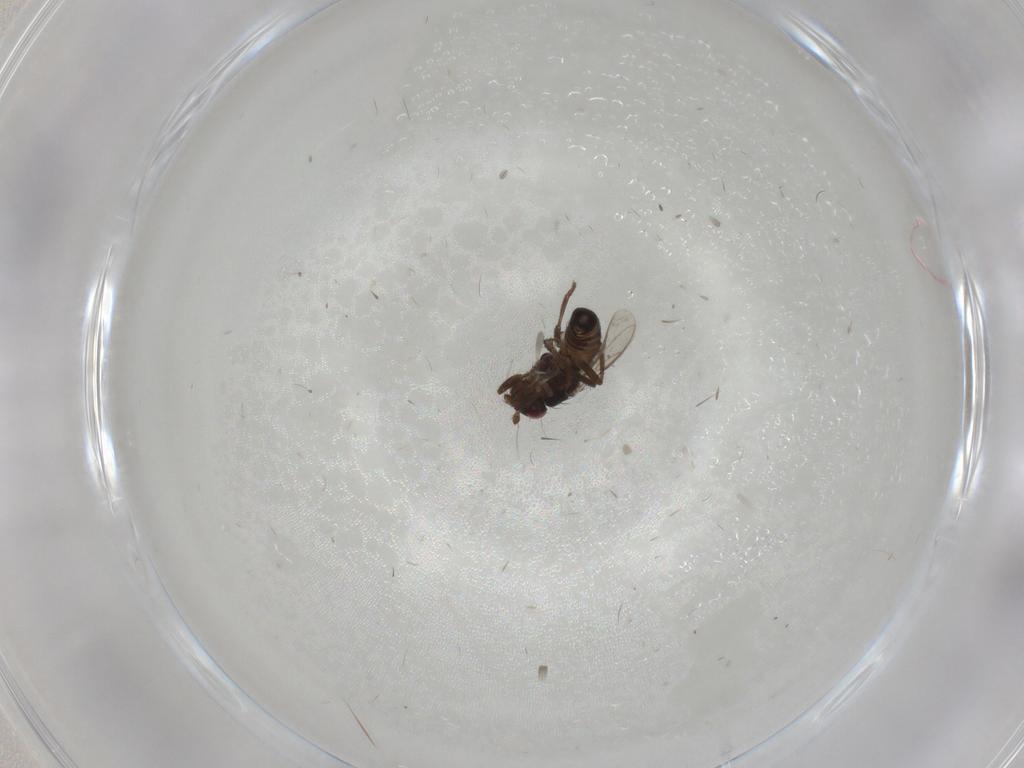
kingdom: Animalia
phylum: Arthropoda
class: Insecta
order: Diptera
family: Sphaeroceridae
